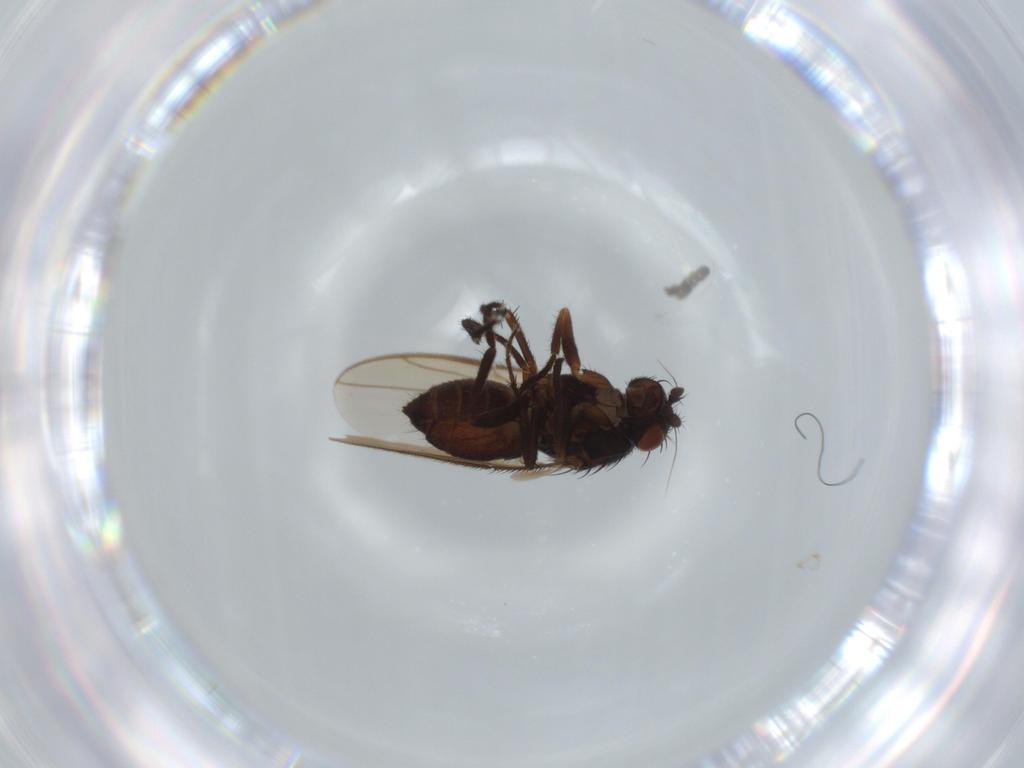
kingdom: Animalia
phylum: Arthropoda
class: Insecta
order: Diptera
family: Sphaeroceridae
